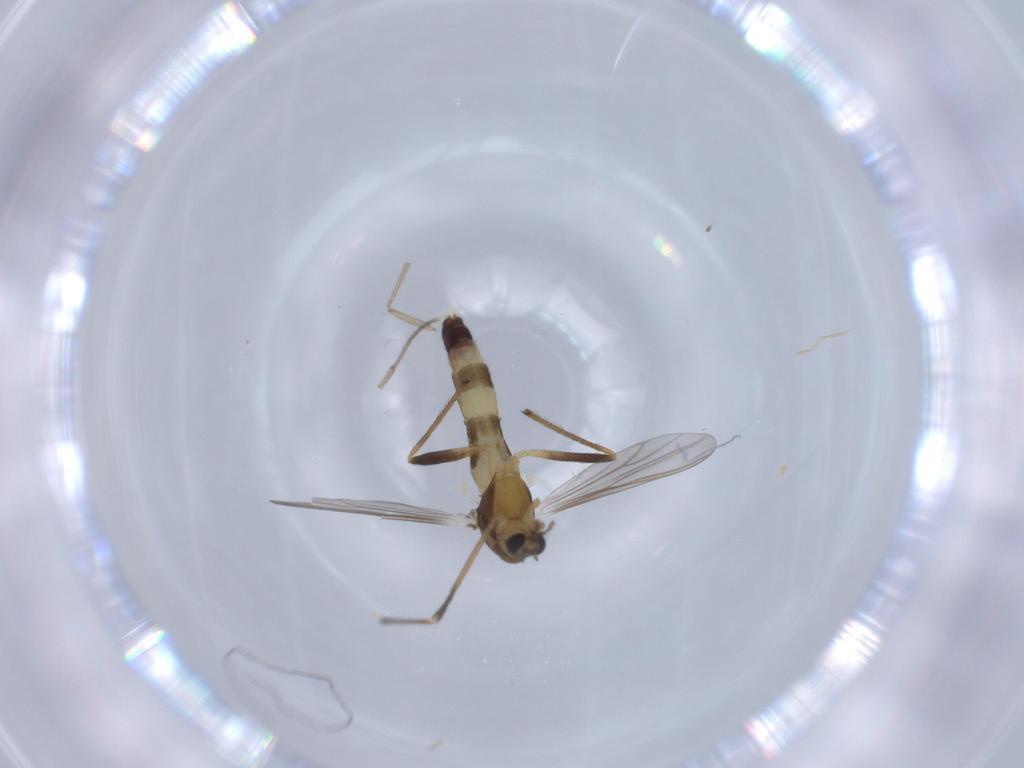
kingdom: Animalia
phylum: Arthropoda
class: Insecta
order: Diptera
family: Chironomidae
